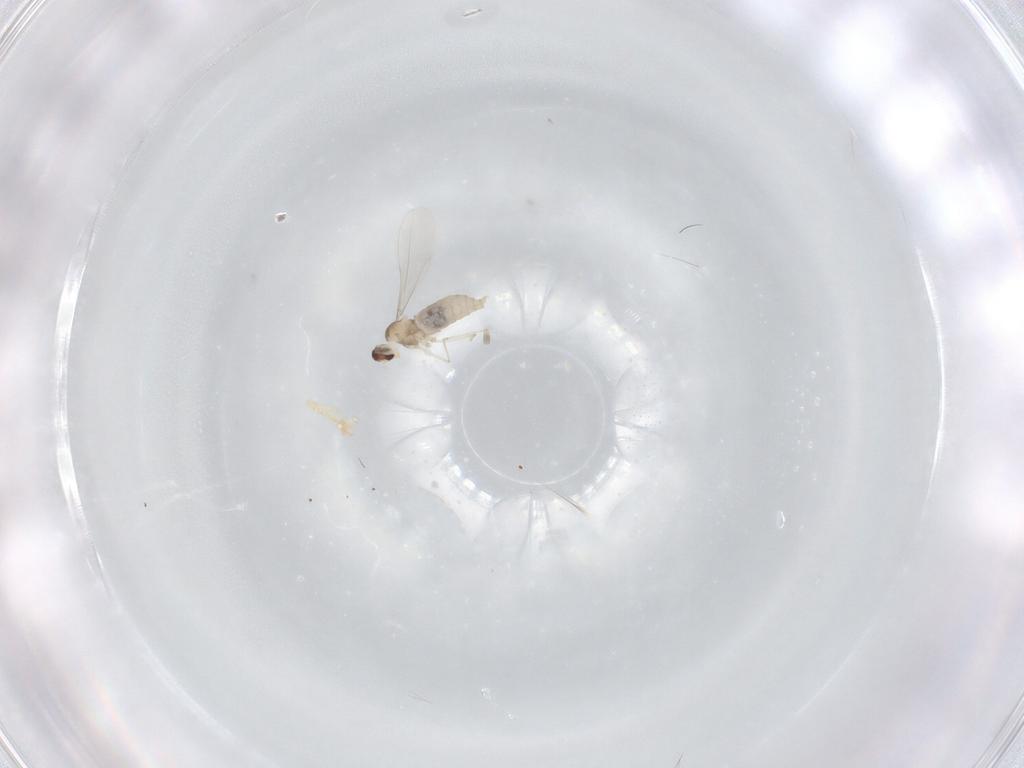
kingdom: Animalia
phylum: Arthropoda
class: Insecta
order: Diptera
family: Cecidomyiidae
